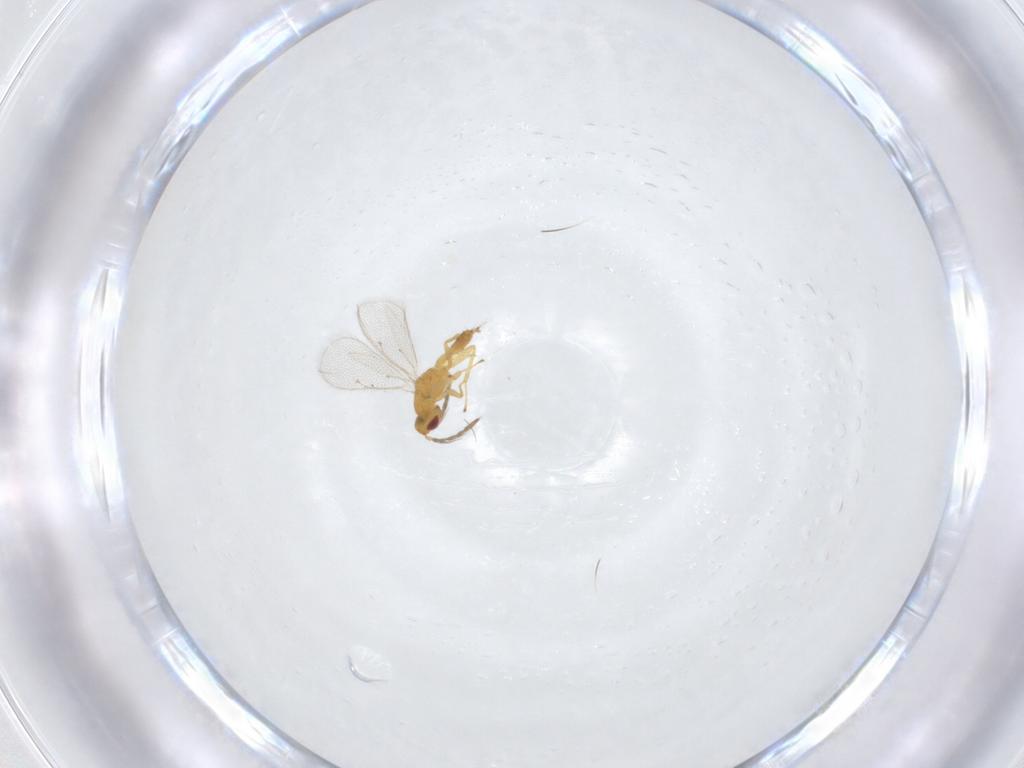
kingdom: Animalia
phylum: Arthropoda
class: Insecta
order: Hymenoptera
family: Eulophidae
